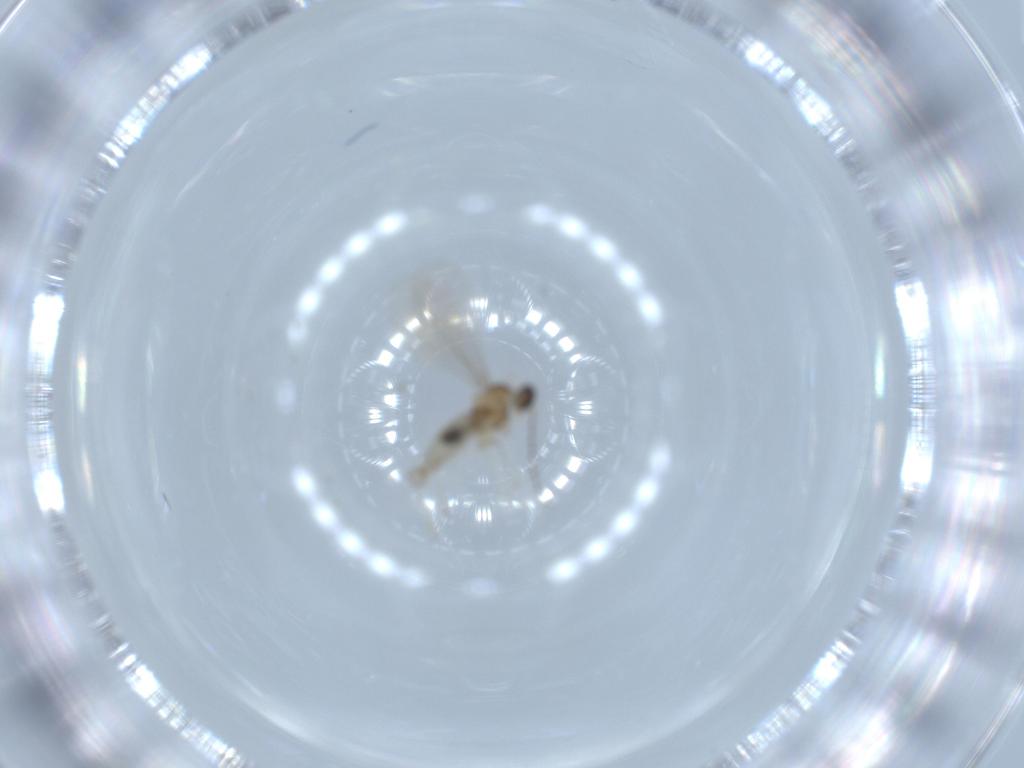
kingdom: Animalia
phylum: Arthropoda
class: Insecta
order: Diptera
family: Cecidomyiidae
